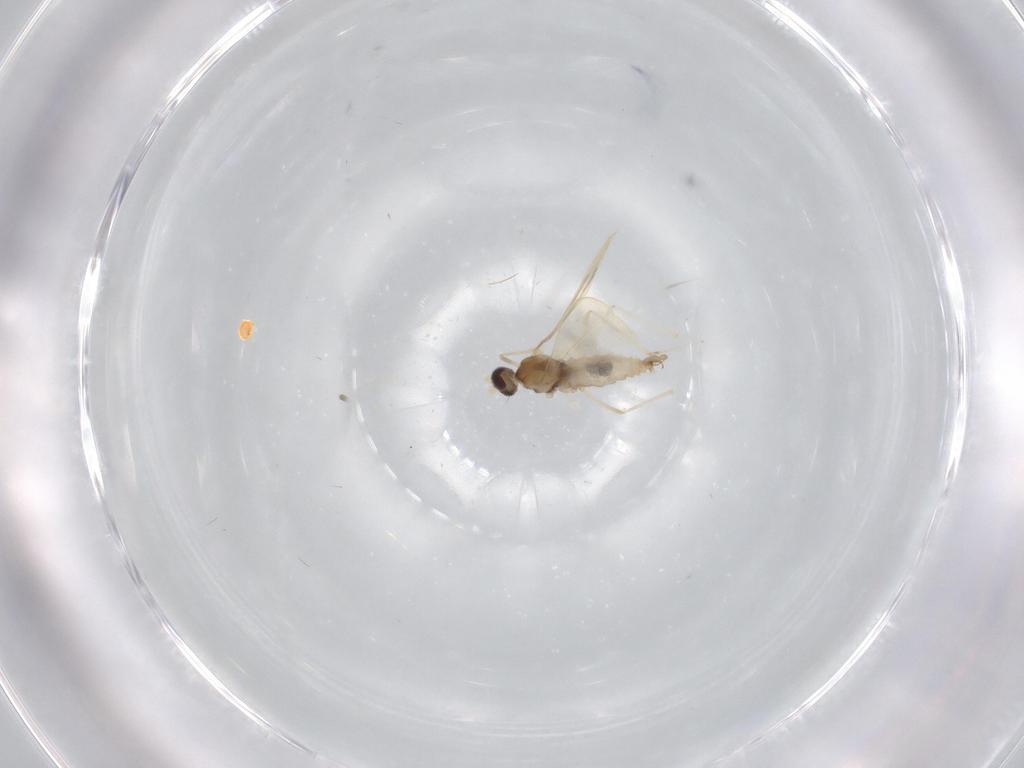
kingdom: Animalia
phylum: Arthropoda
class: Insecta
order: Diptera
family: Cecidomyiidae
